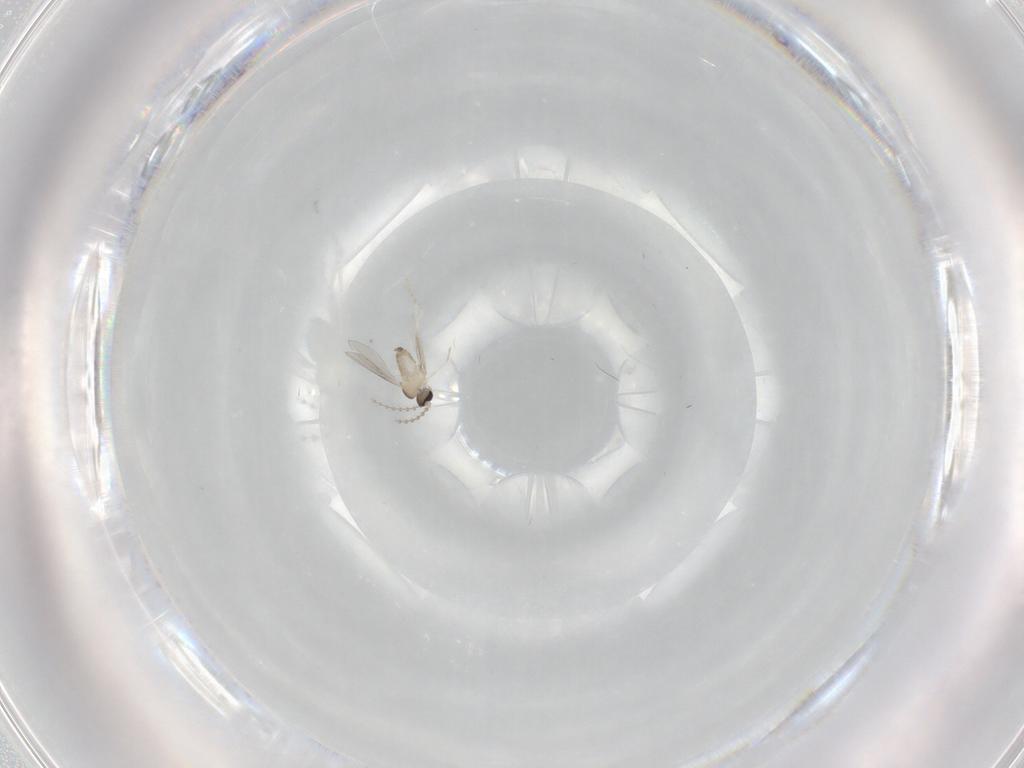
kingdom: Animalia
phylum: Arthropoda
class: Insecta
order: Diptera
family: Cecidomyiidae
